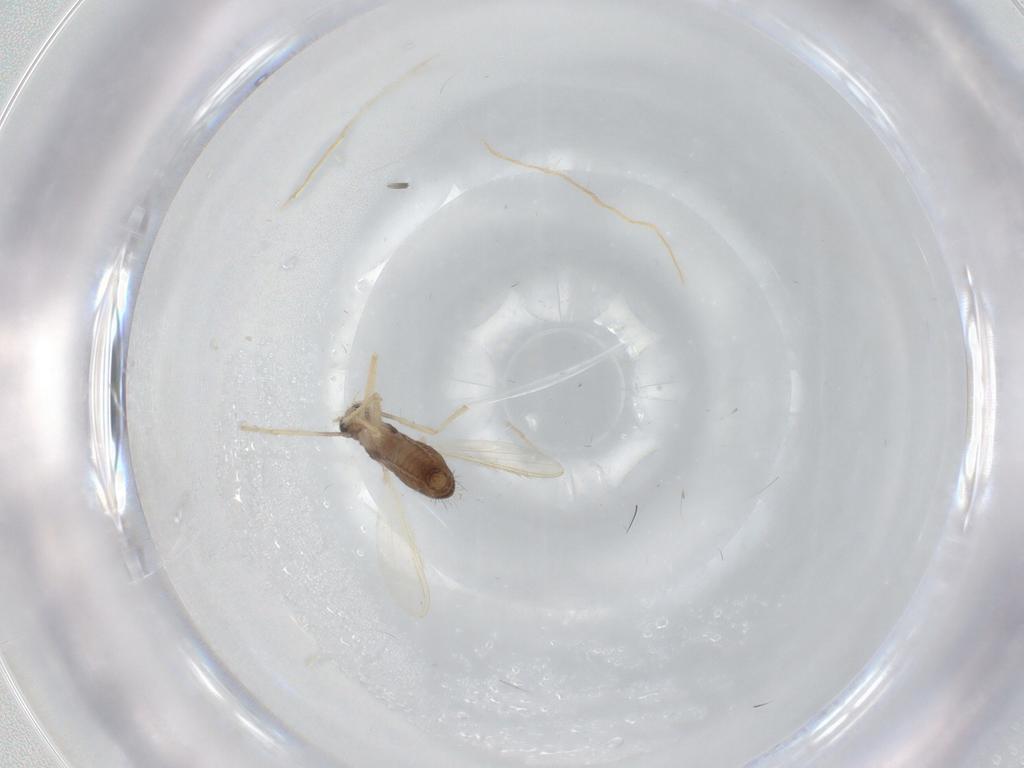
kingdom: Animalia
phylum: Arthropoda
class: Insecta
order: Diptera
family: Chironomidae
